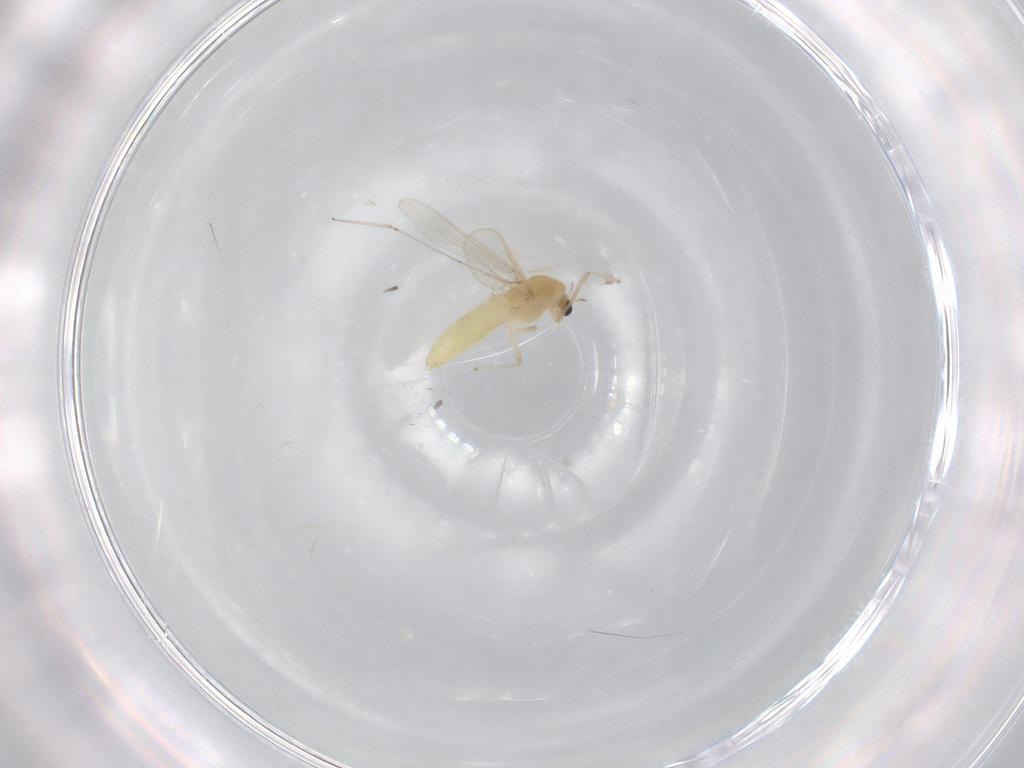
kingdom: Animalia
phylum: Arthropoda
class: Insecta
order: Diptera
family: Chironomidae
